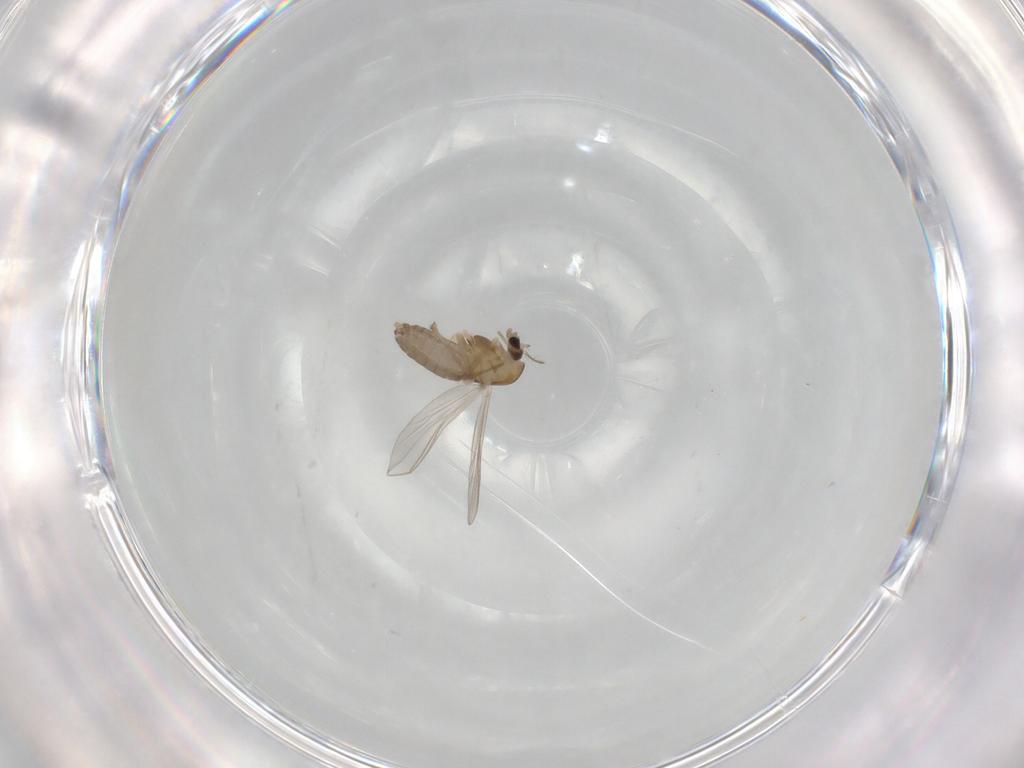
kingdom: Animalia
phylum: Arthropoda
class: Insecta
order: Diptera
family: Chironomidae
